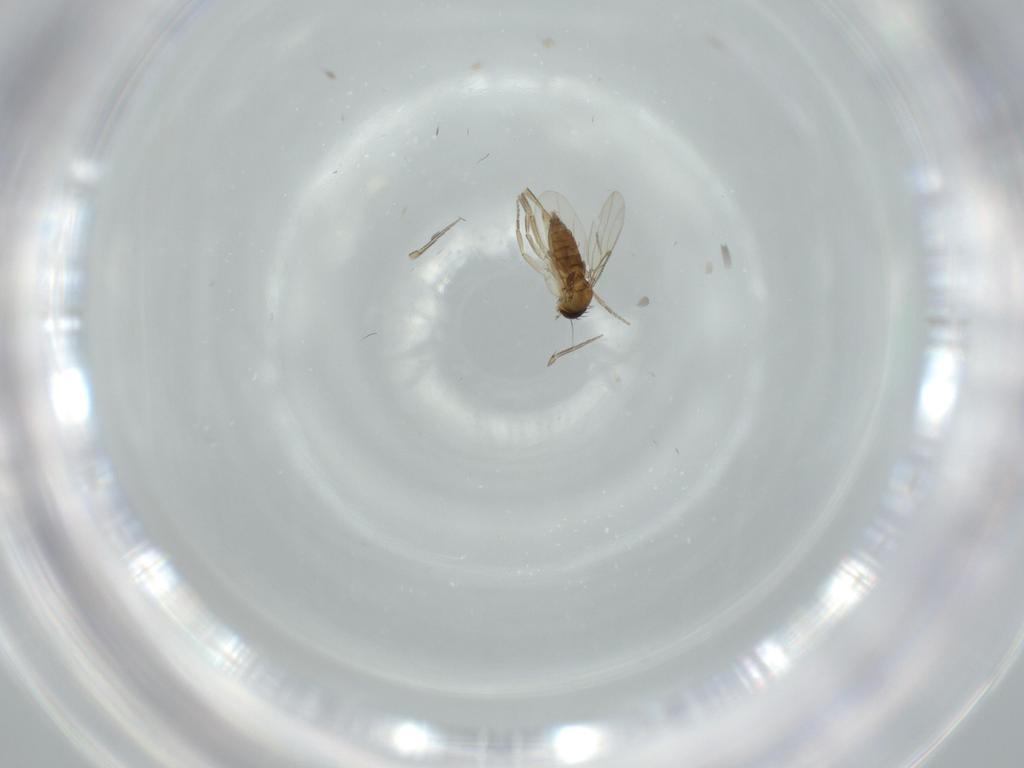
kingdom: Animalia
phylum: Arthropoda
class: Insecta
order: Diptera
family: Phoridae
